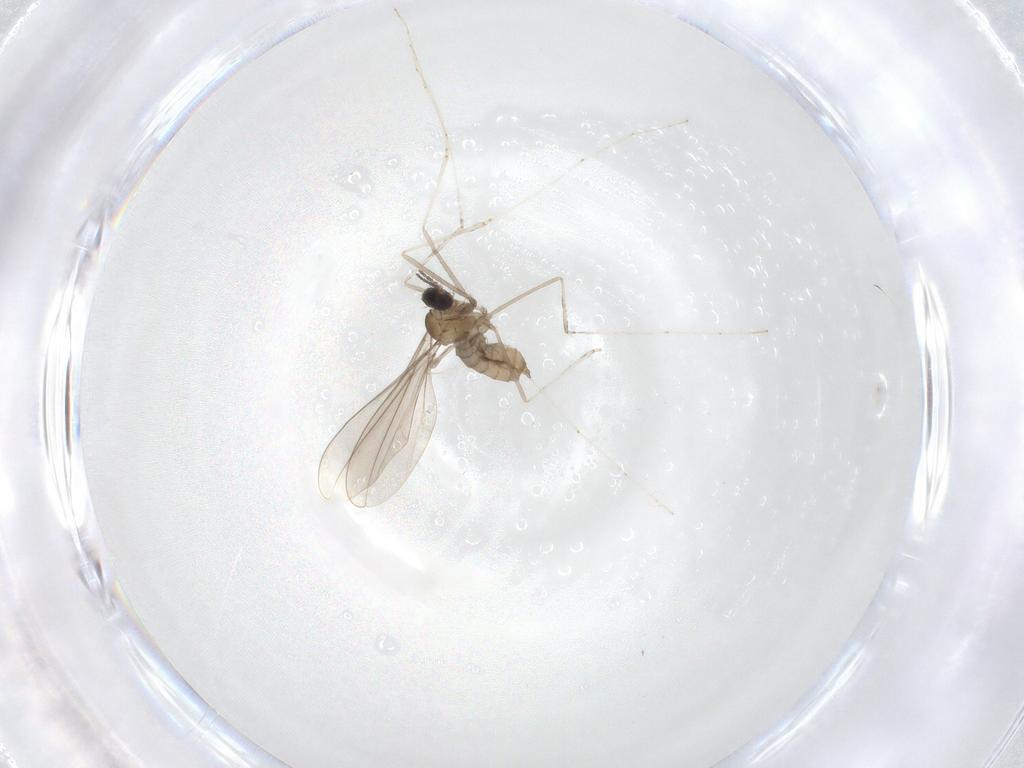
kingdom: Animalia
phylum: Arthropoda
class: Insecta
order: Diptera
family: Cecidomyiidae
